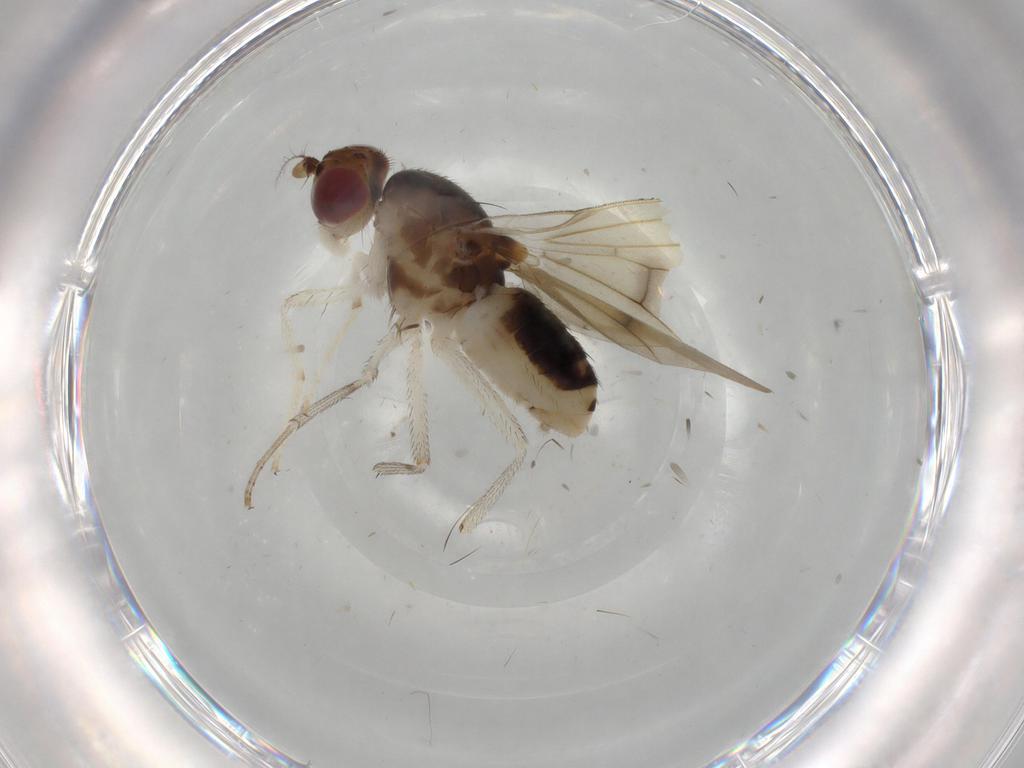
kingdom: Animalia
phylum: Arthropoda
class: Insecta
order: Diptera
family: Lauxaniidae
